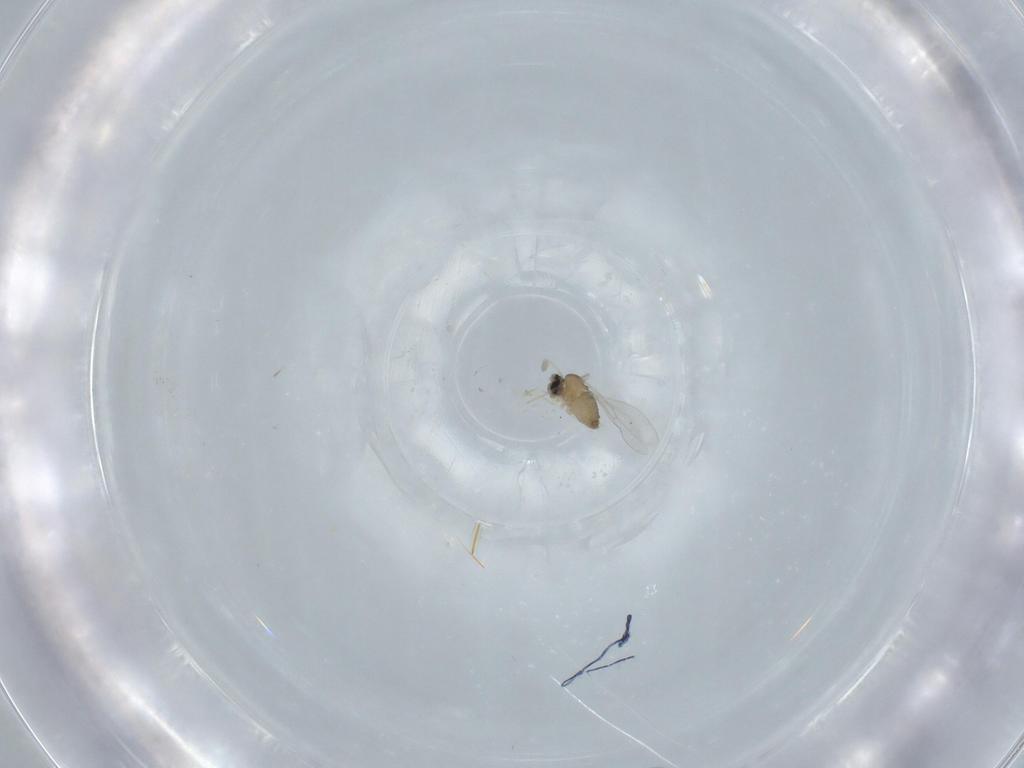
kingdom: Animalia
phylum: Arthropoda
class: Insecta
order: Diptera
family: Cecidomyiidae
